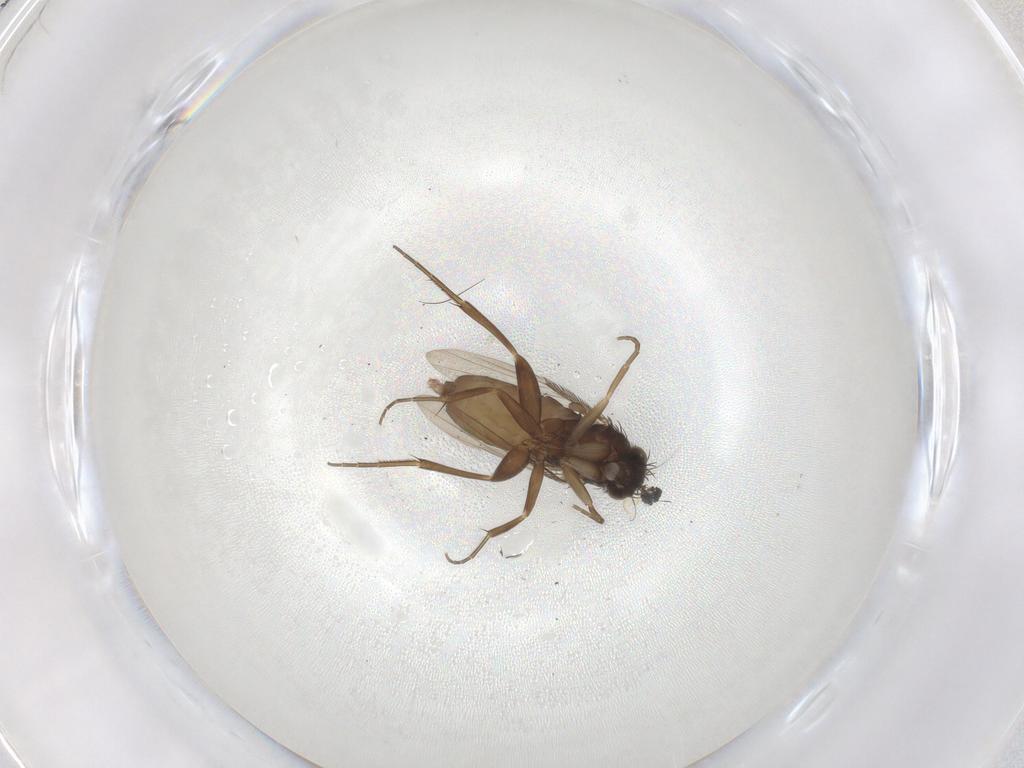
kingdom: Animalia
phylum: Arthropoda
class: Insecta
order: Diptera
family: Phoridae
